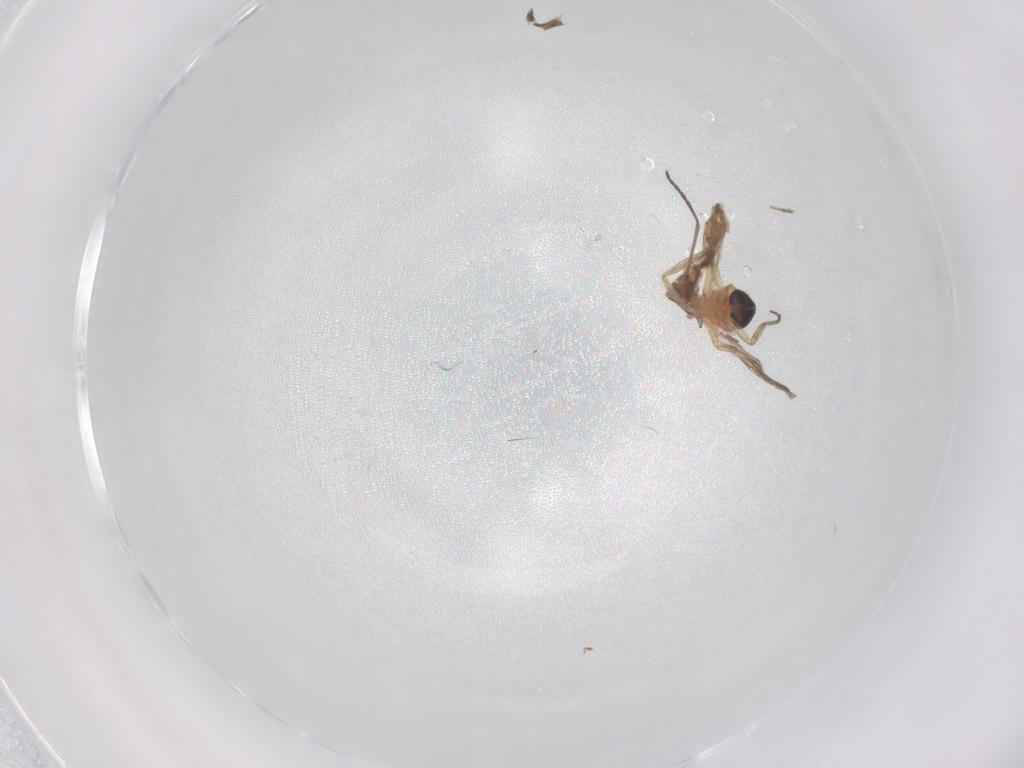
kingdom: Animalia
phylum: Arthropoda
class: Insecta
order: Diptera
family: Ceratopogonidae
